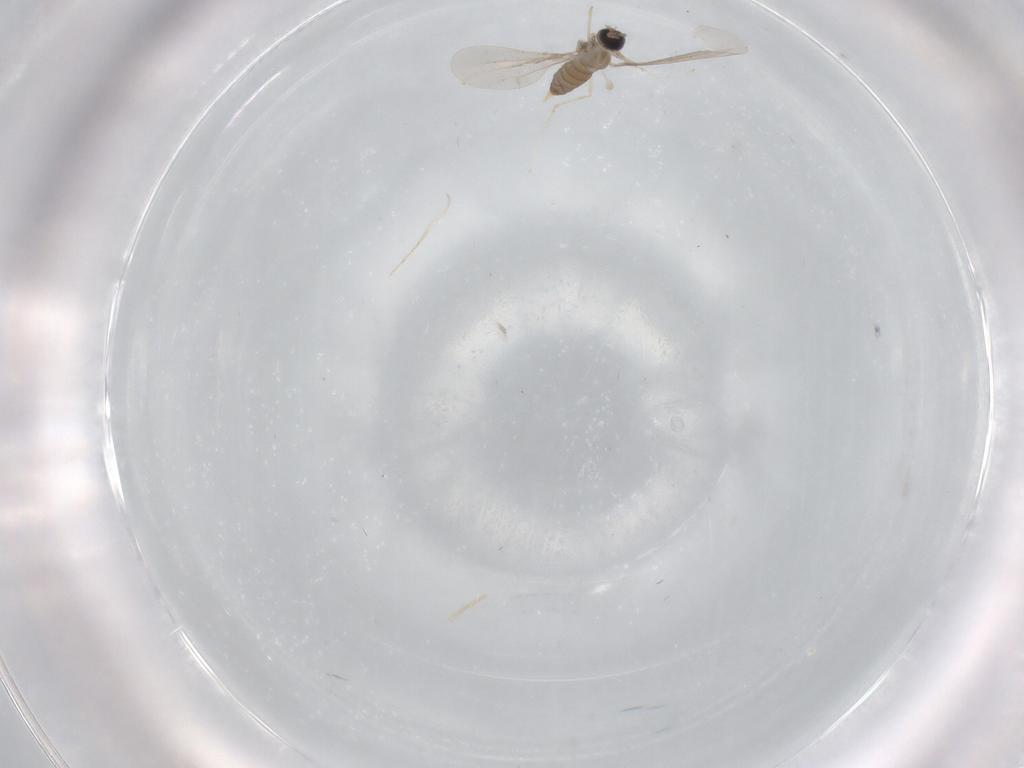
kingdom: Animalia
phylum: Arthropoda
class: Insecta
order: Diptera
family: Cecidomyiidae
